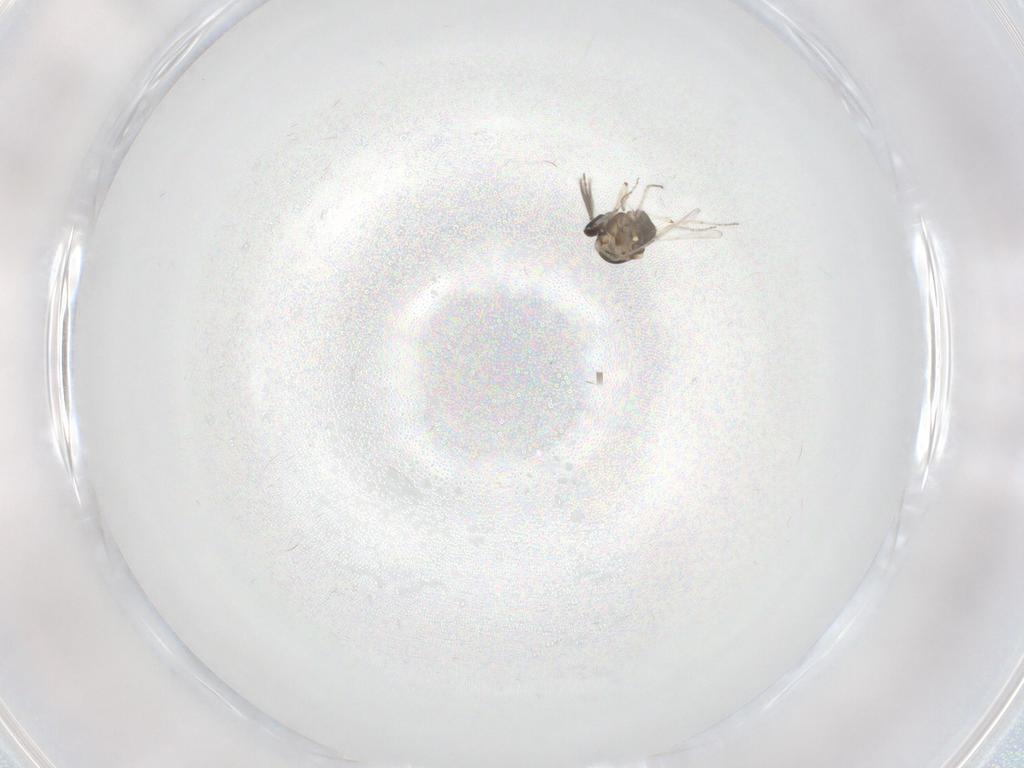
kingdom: Animalia
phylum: Arthropoda
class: Insecta
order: Diptera
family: Ceratopogonidae
